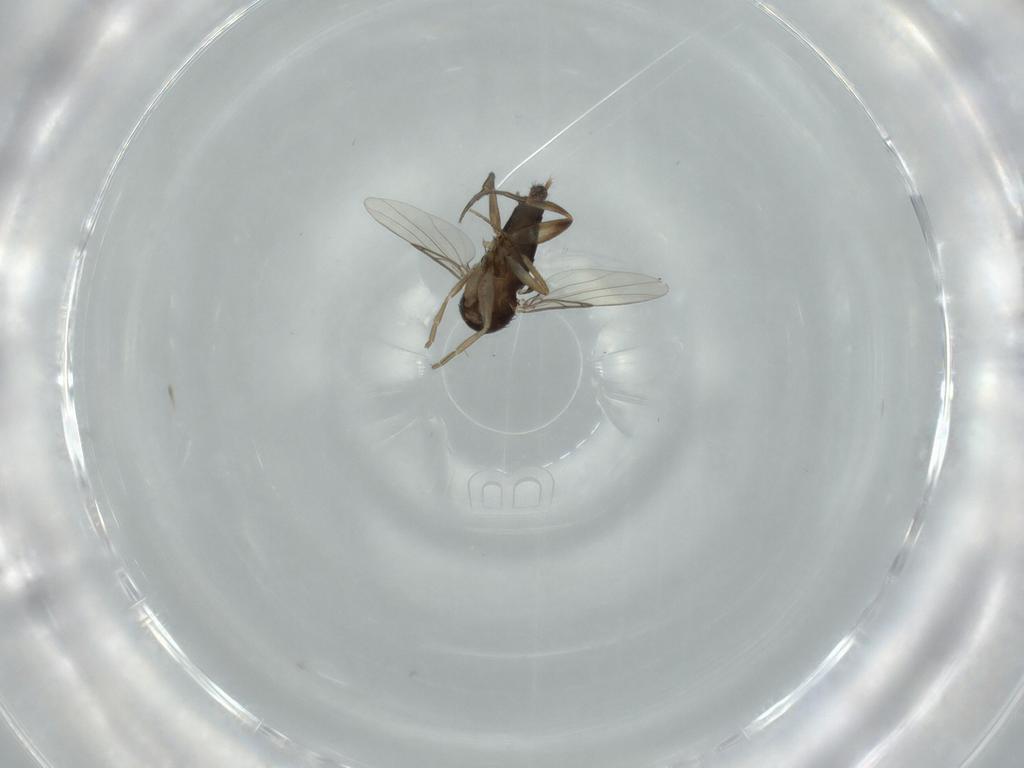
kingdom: Animalia
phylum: Arthropoda
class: Insecta
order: Diptera
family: Phoridae
